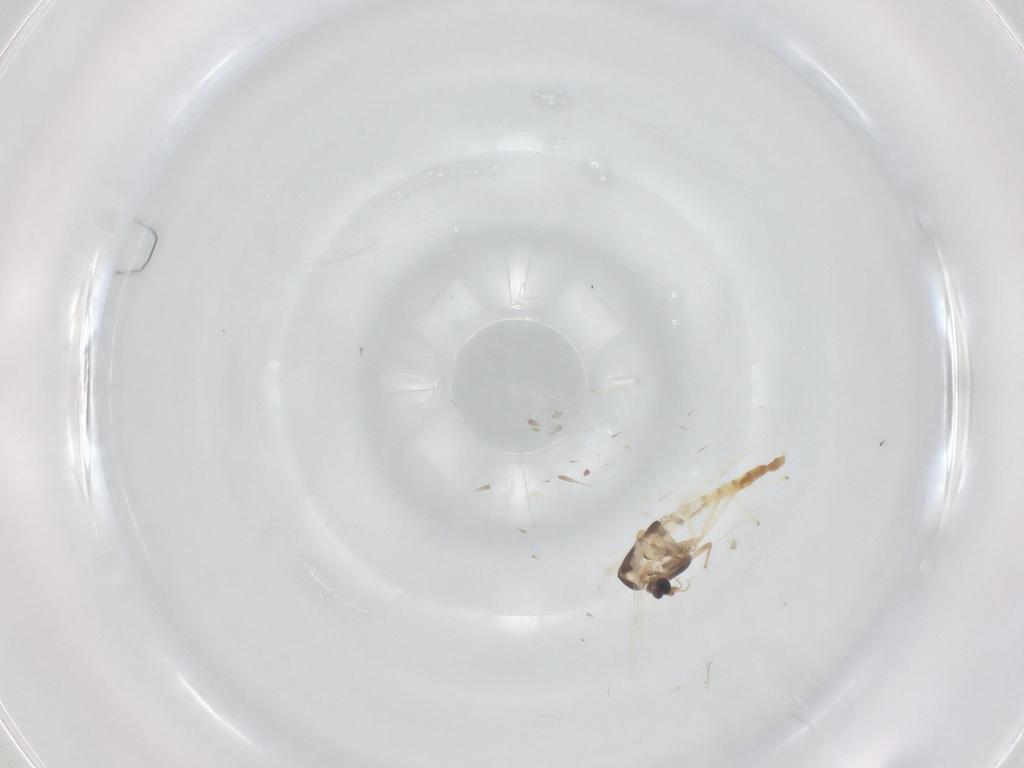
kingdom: Animalia
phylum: Arthropoda
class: Insecta
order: Diptera
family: Chironomidae
